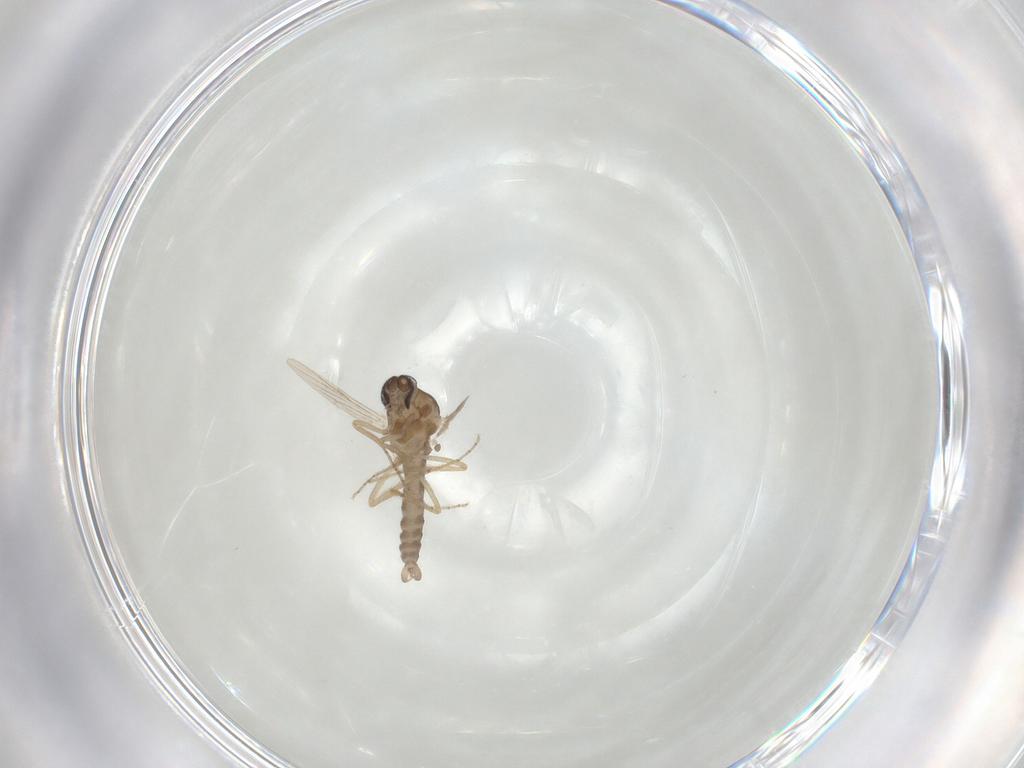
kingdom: Animalia
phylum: Arthropoda
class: Insecta
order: Diptera
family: Ceratopogonidae
